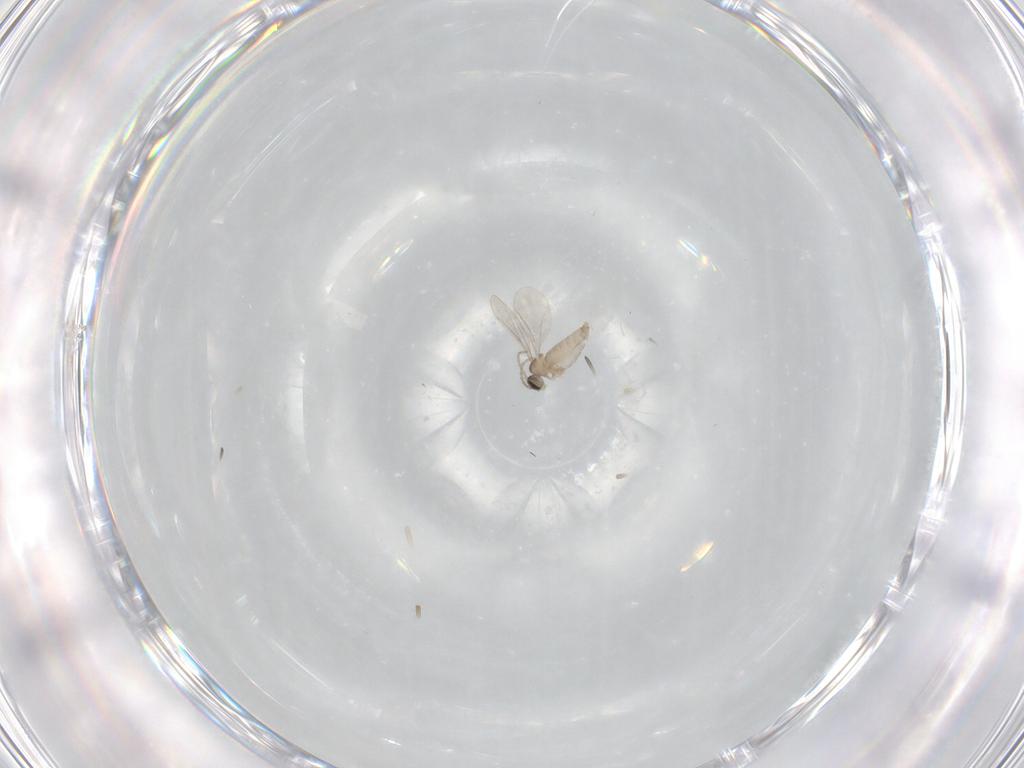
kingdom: Animalia
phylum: Arthropoda
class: Insecta
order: Diptera
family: Cecidomyiidae
